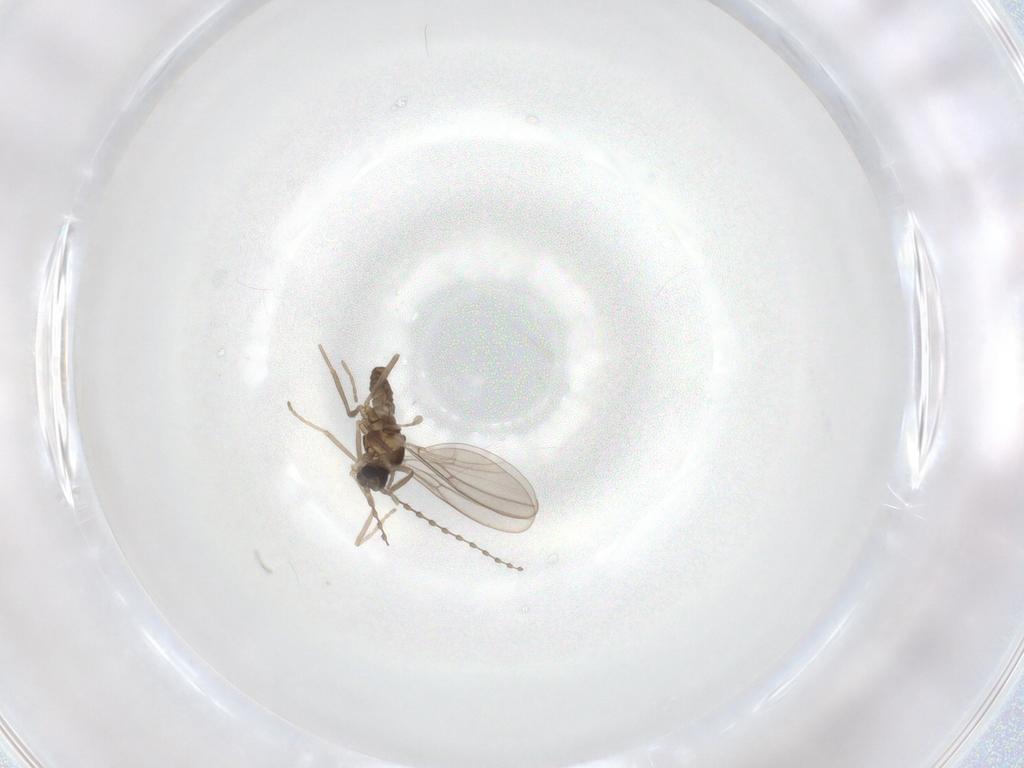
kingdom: Animalia
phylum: Arthropoda
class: Insecta
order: Diptera
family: Cecidomyiidae
